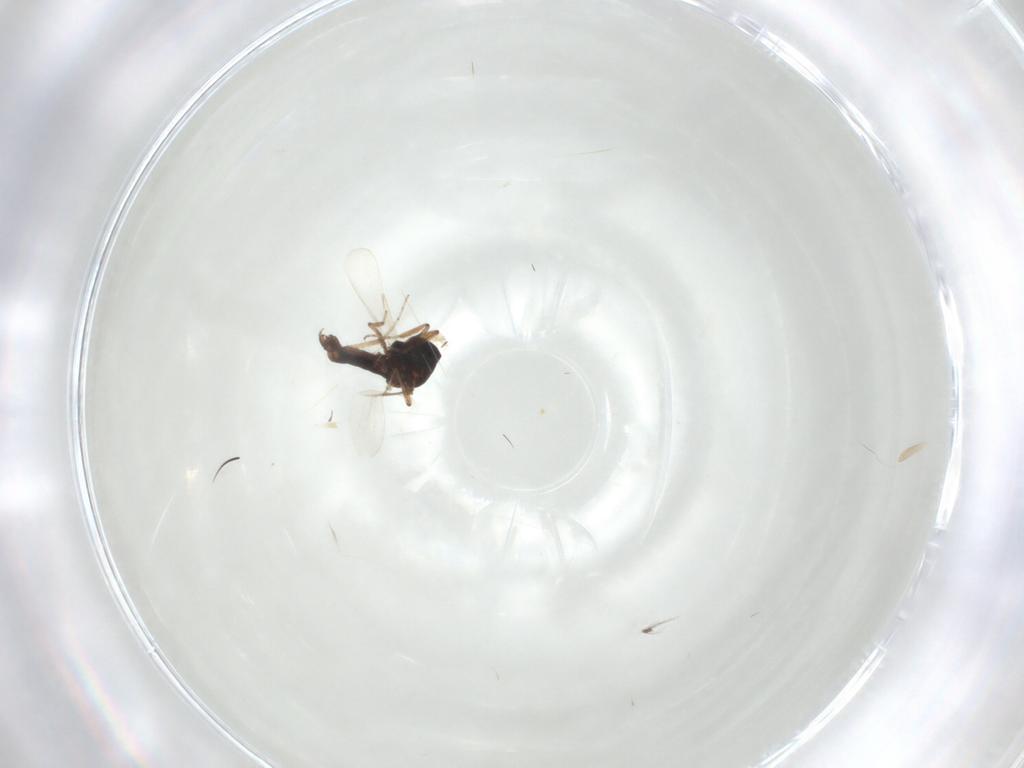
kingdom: Animalia
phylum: Arthropoda
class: Insecta
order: Diptera
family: Ceratopogonidae
